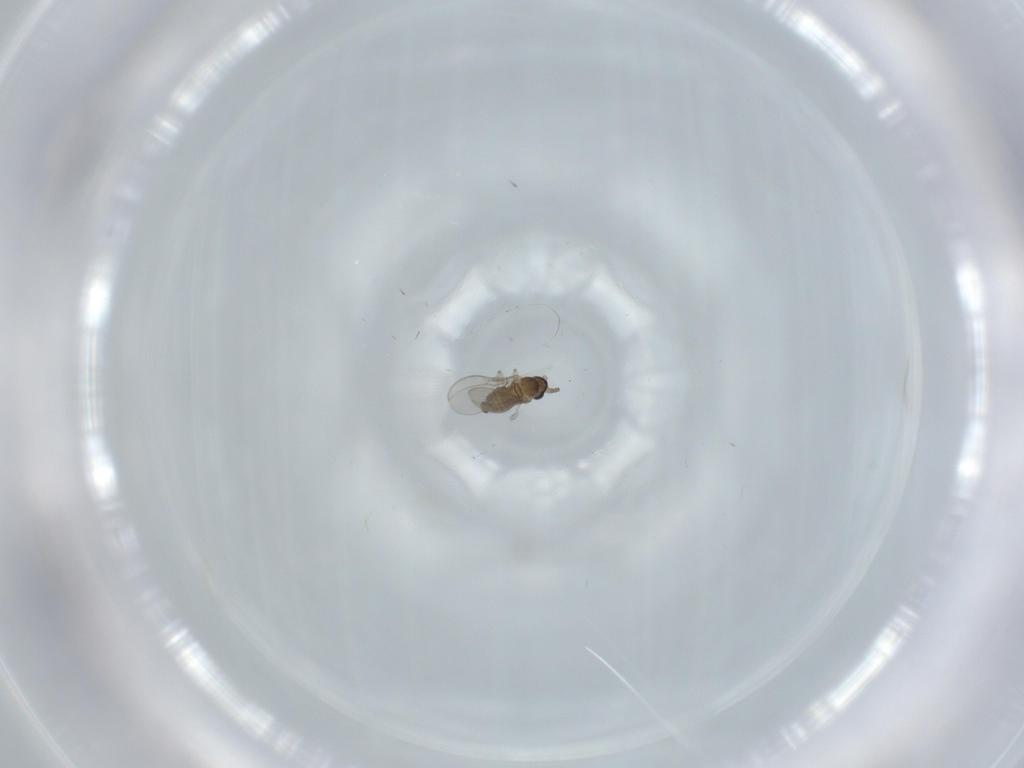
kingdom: Animalia
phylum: Arthropoda
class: Insecta
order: Diptera
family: Cecidomyiidae
